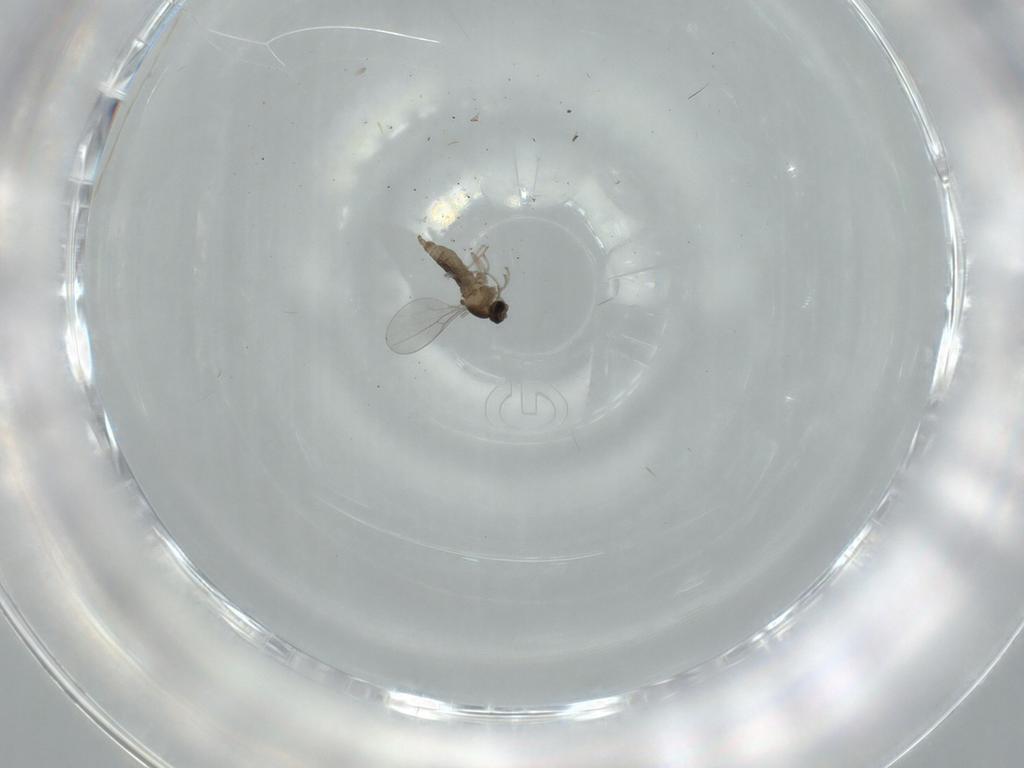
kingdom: Animalia
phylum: Arthropoda
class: Insecta
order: Diptera
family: Cecidomyiidae
